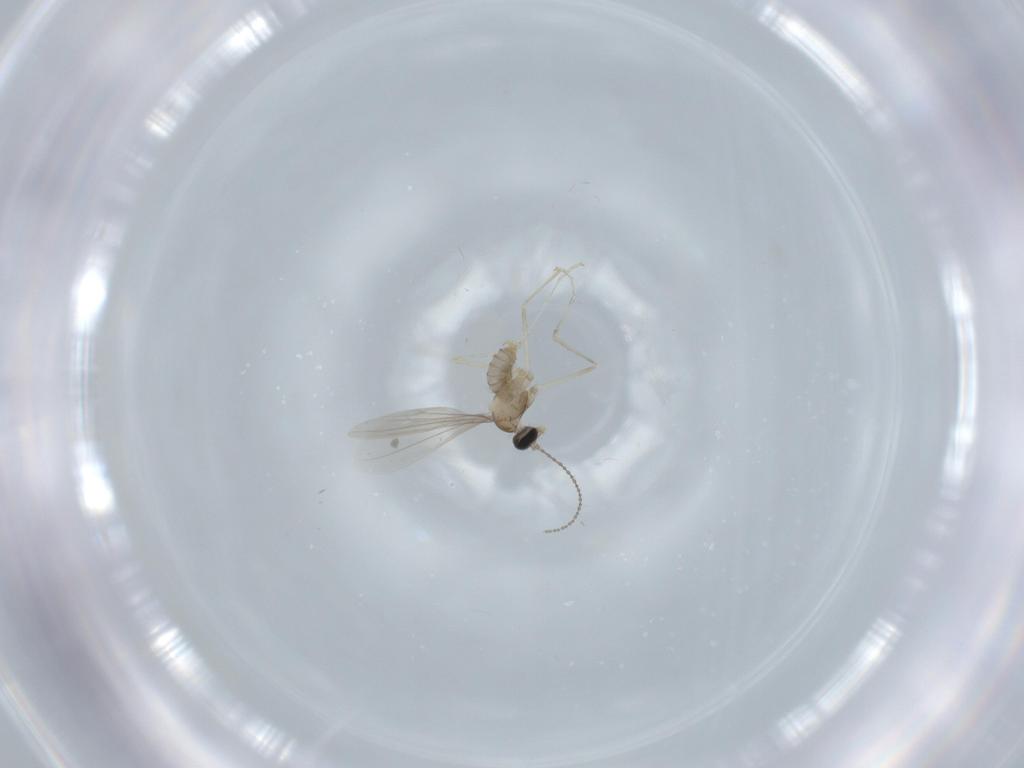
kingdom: Animalia
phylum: Arthropoda
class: Insecta
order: Diptera
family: Cecidomyiidae
